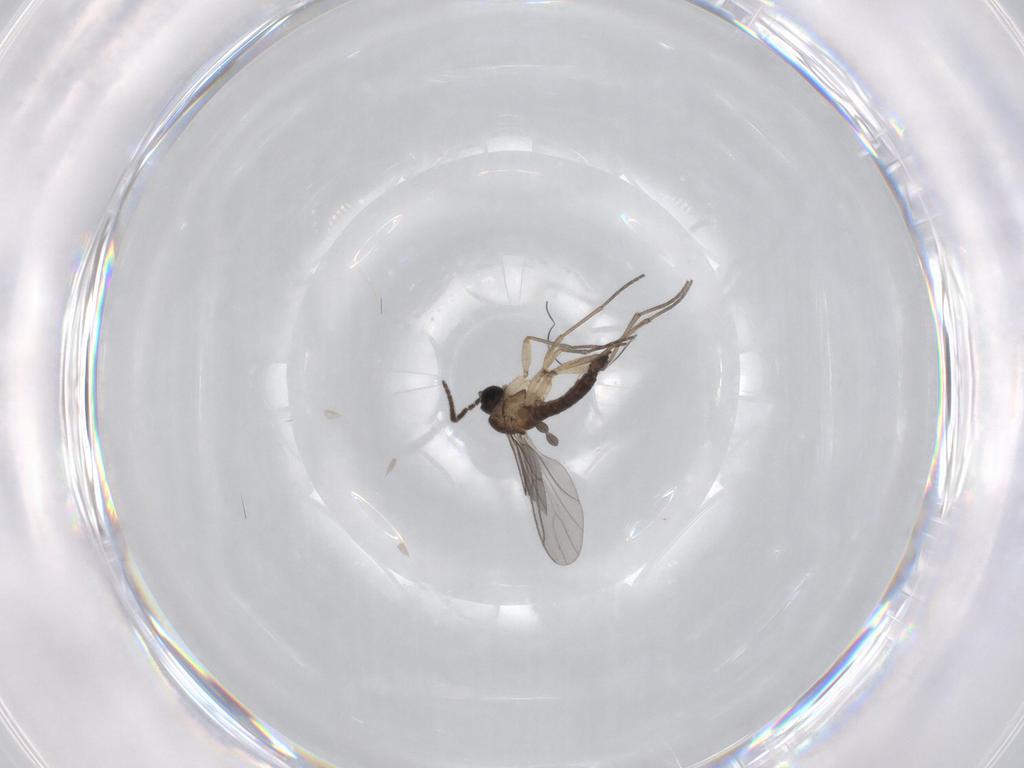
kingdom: Animalia
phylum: Arthropoda
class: Insecta
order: Diptera
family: Sciaridae
